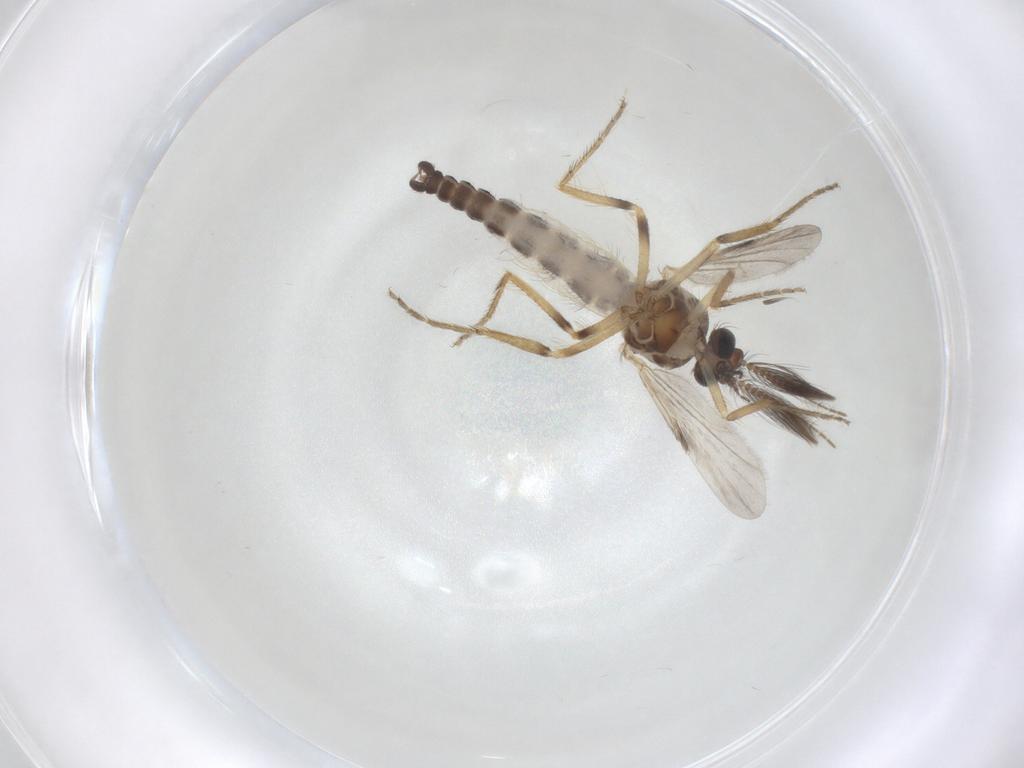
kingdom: Animalia
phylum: Arthropoda
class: Insecta
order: Diptera
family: Ceratopogonidae
